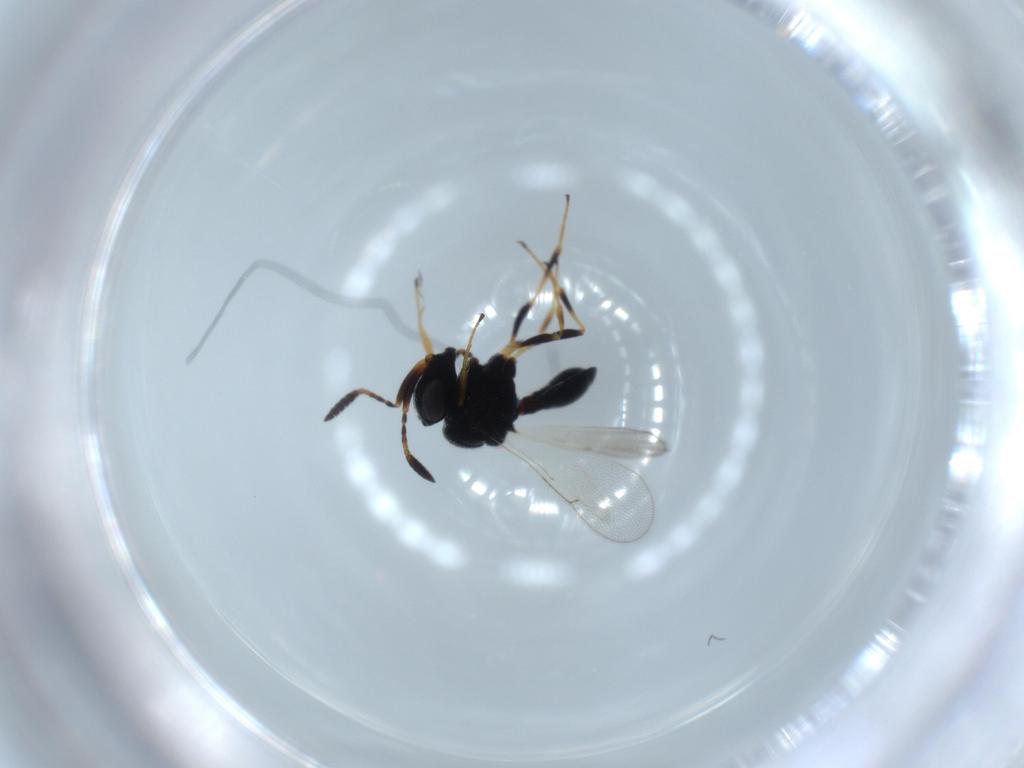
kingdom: Animalia
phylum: Arthropoda
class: Insecta
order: Hymenoptera
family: Scelionidae
